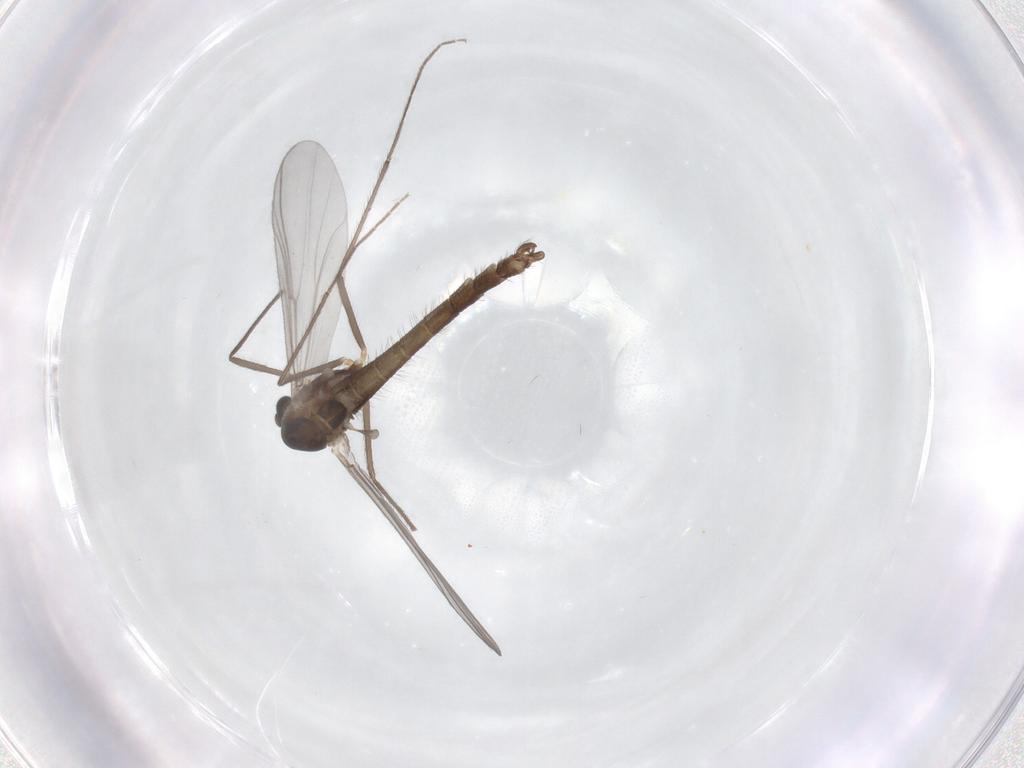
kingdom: Animalia
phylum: Arthropoda
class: Insecta
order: Diptera
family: Chironomidae
